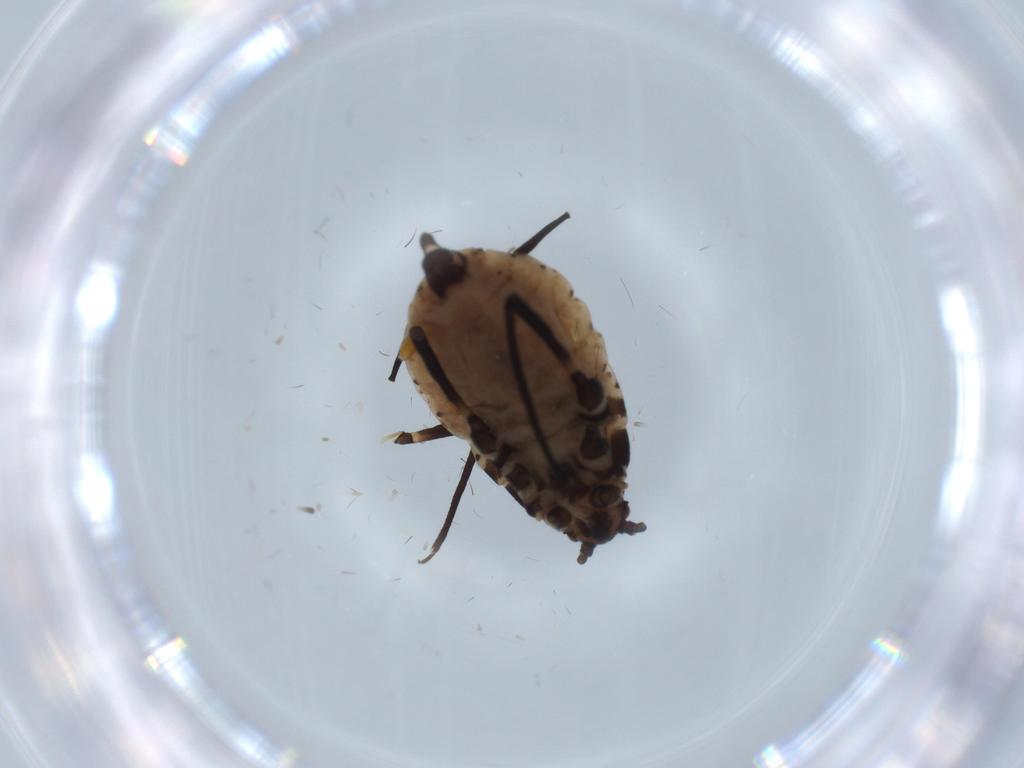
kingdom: Animalia
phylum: Arthropoda
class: Insecta
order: Hemiptera
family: Aphididae
